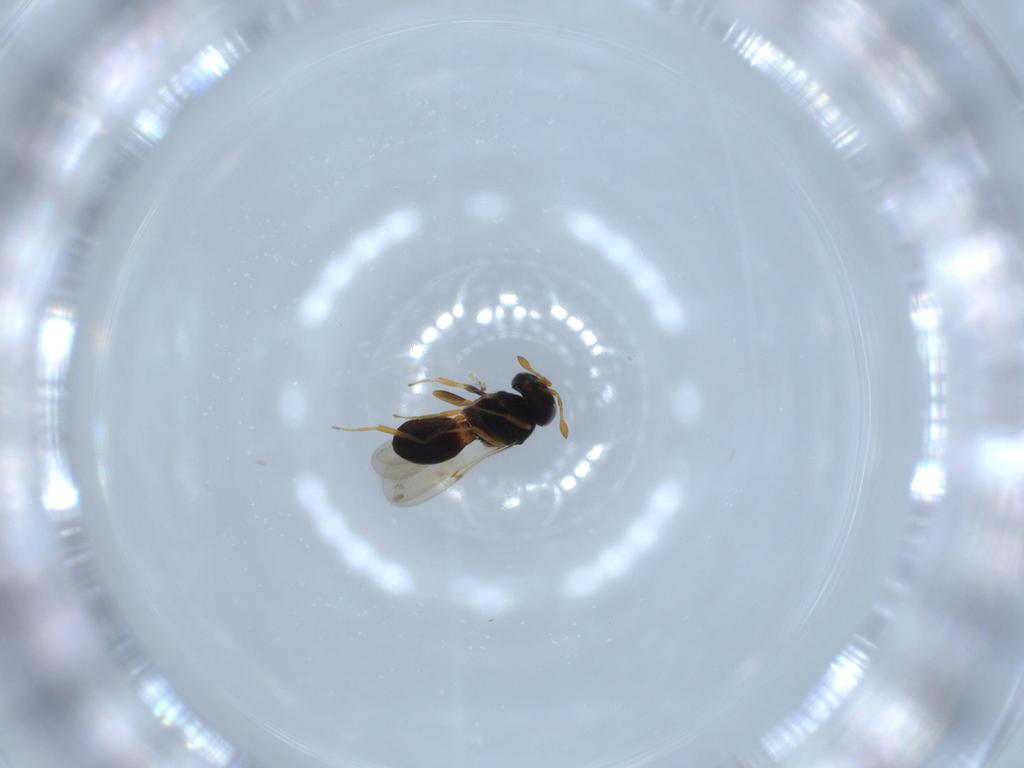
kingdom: Animalia
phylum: Arthropoda
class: Insecta
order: Hymenoptera
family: Scelionidae
